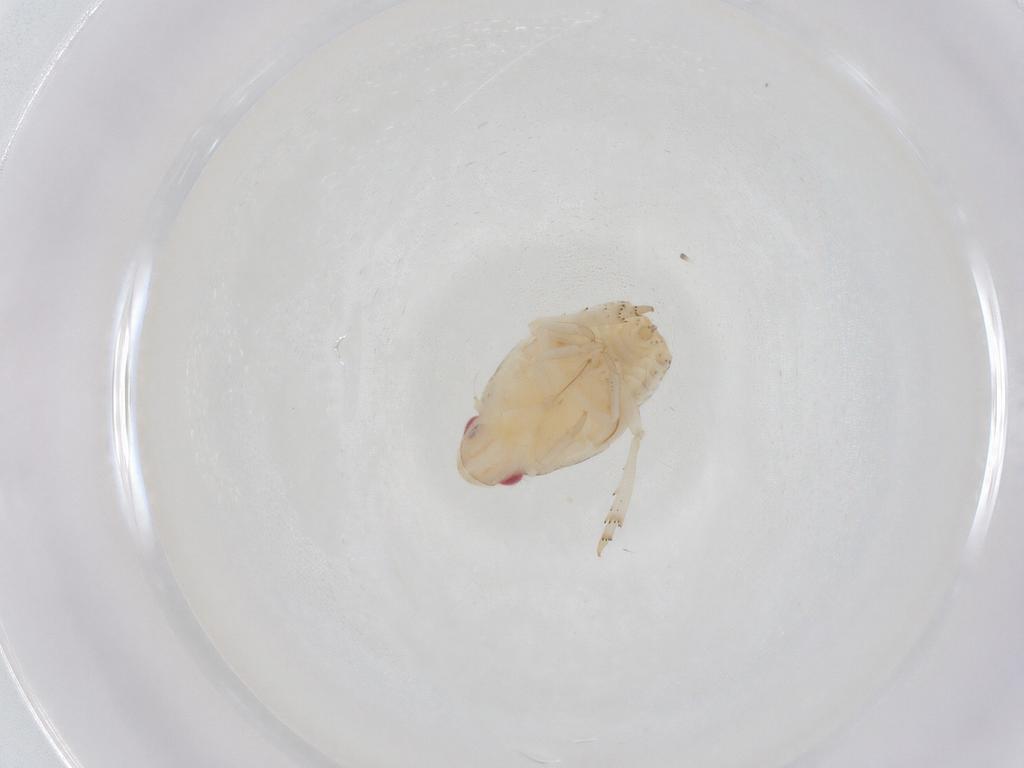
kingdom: Animalia
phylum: Arthropoda
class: Insecta
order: Hemiptera
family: Flatidae
